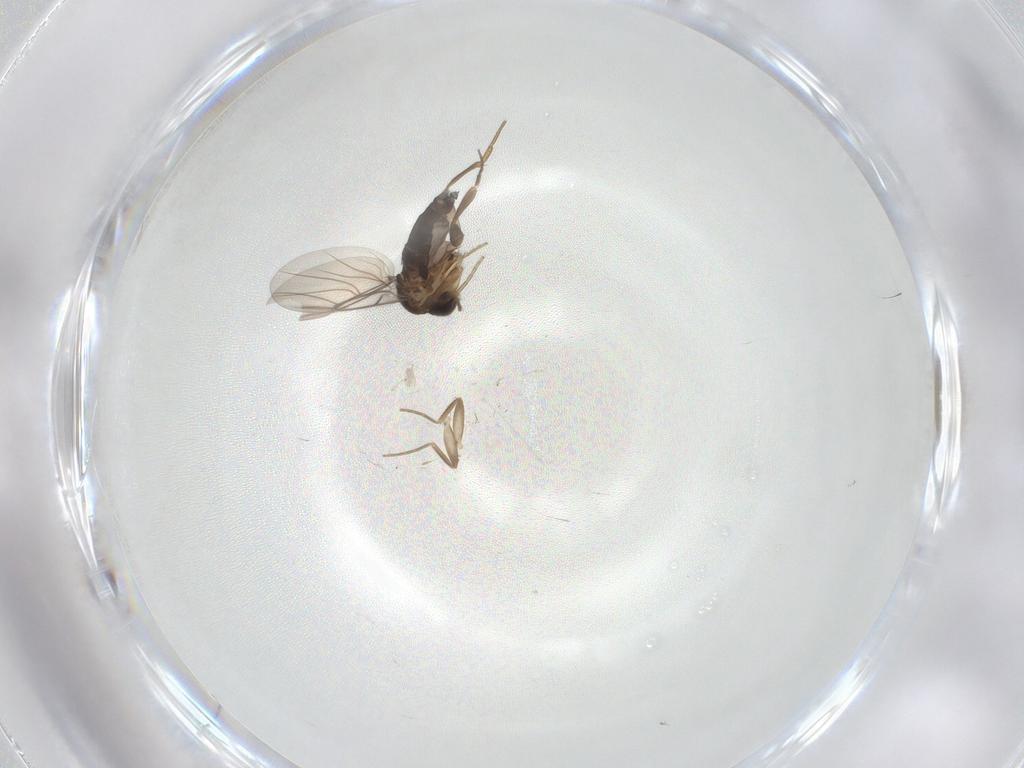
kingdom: Animalia
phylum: Arthropoda
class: Insecta
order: Diptera
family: Phoridae
